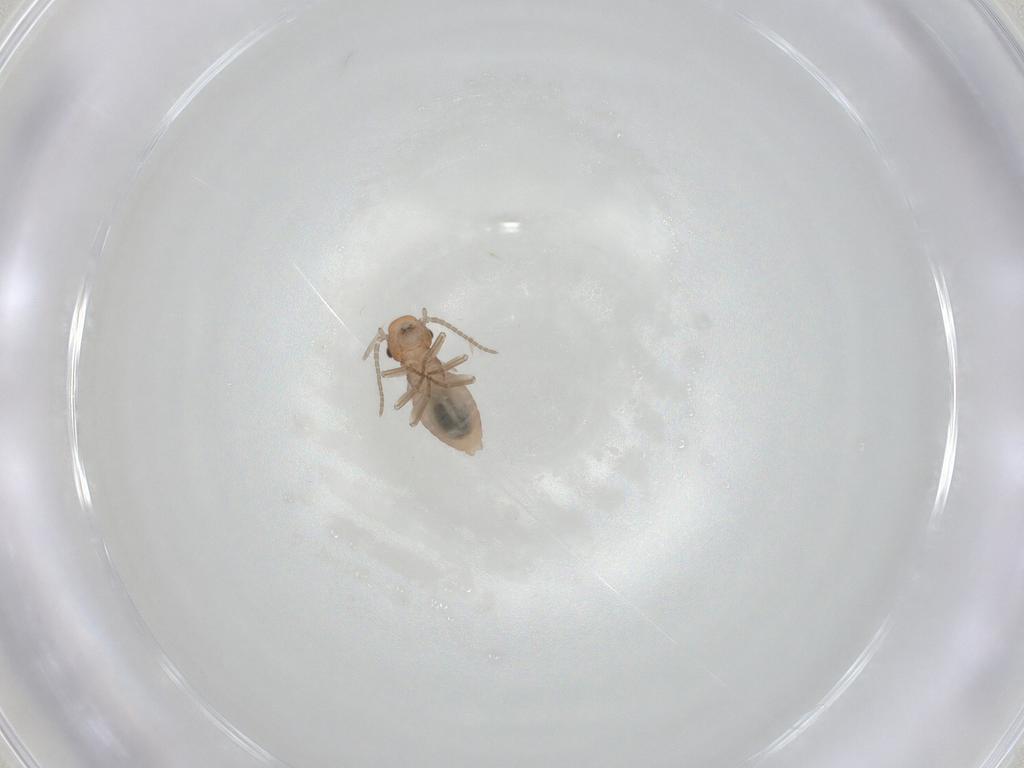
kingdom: Animalia
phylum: Arthropoda
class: Insecta
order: Psocodea
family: Caeciliusidae
